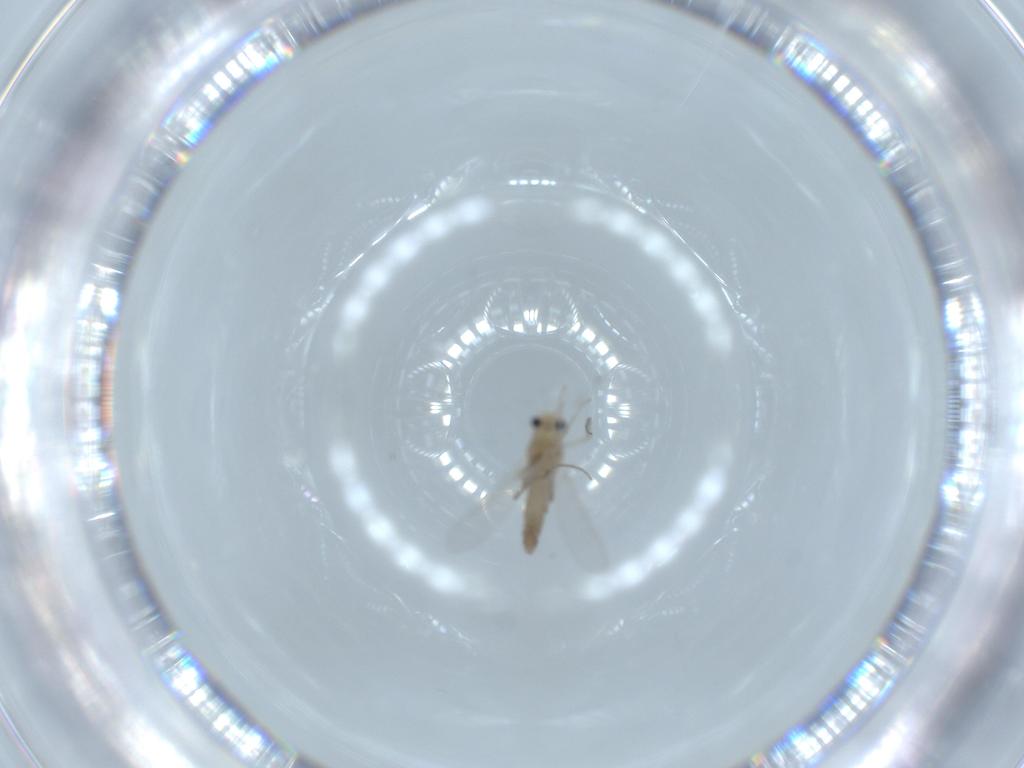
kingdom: Animalia
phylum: Arthropoda
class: Insecta
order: Diptera
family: Chironomidae
